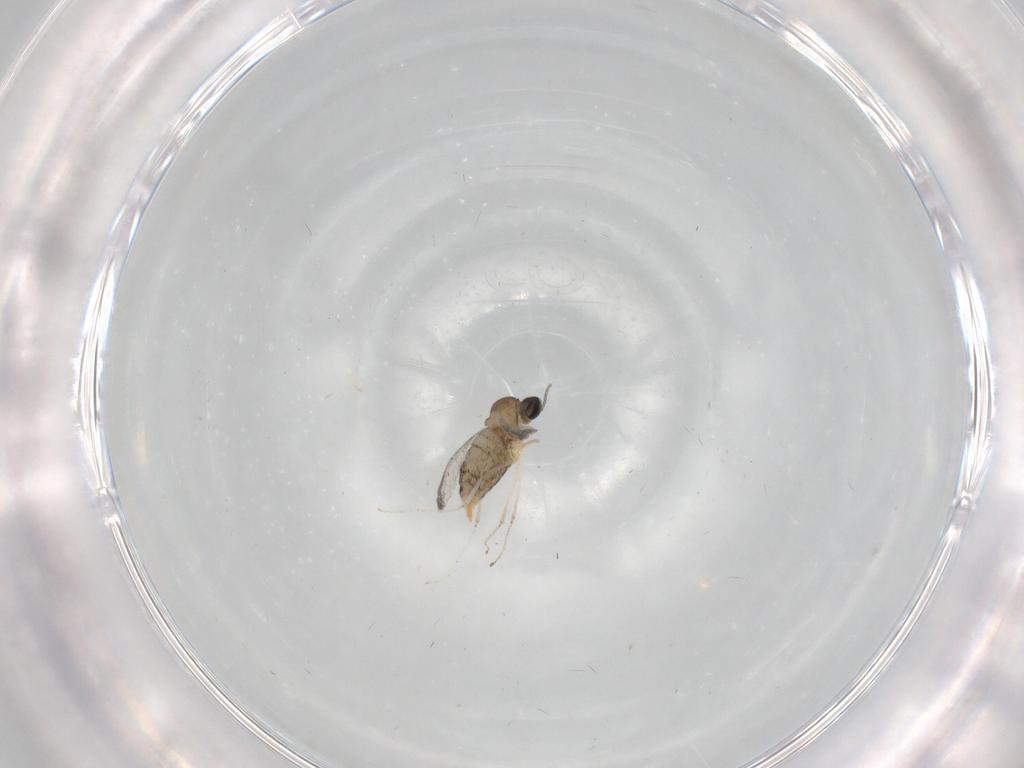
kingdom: Animalia
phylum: Arthropoda
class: Insecta
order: Diptera
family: Cecidomyiidae
